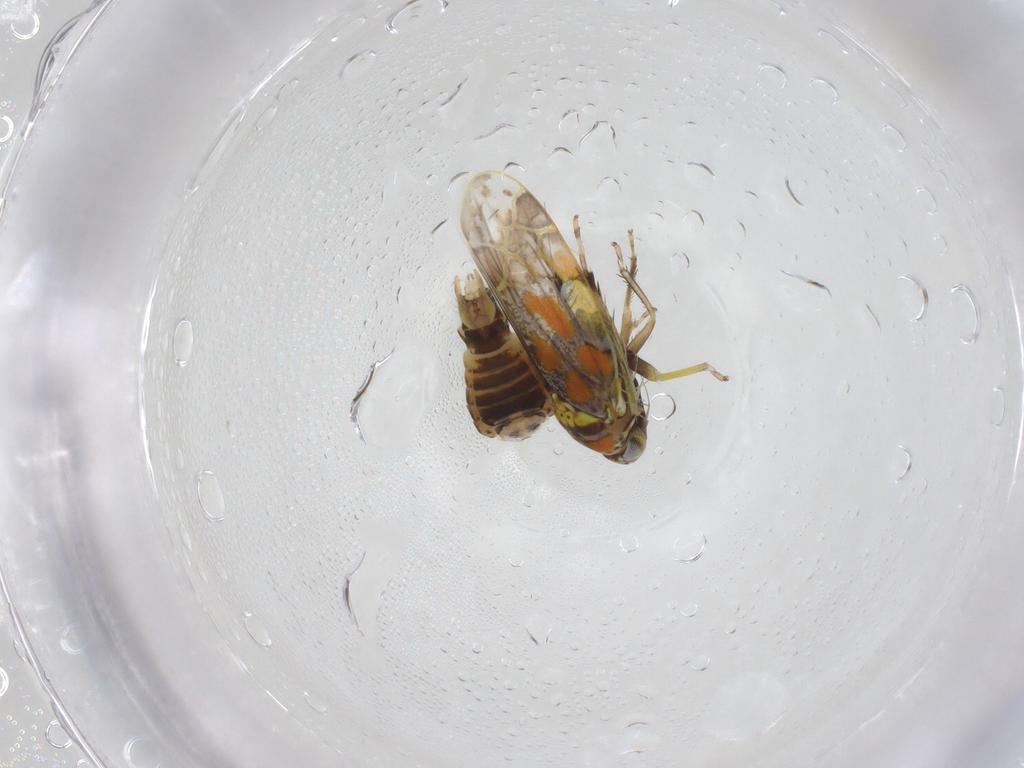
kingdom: Animalia
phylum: Arthropoda
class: Insecta
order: Hemiptera
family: Cicadellidae
